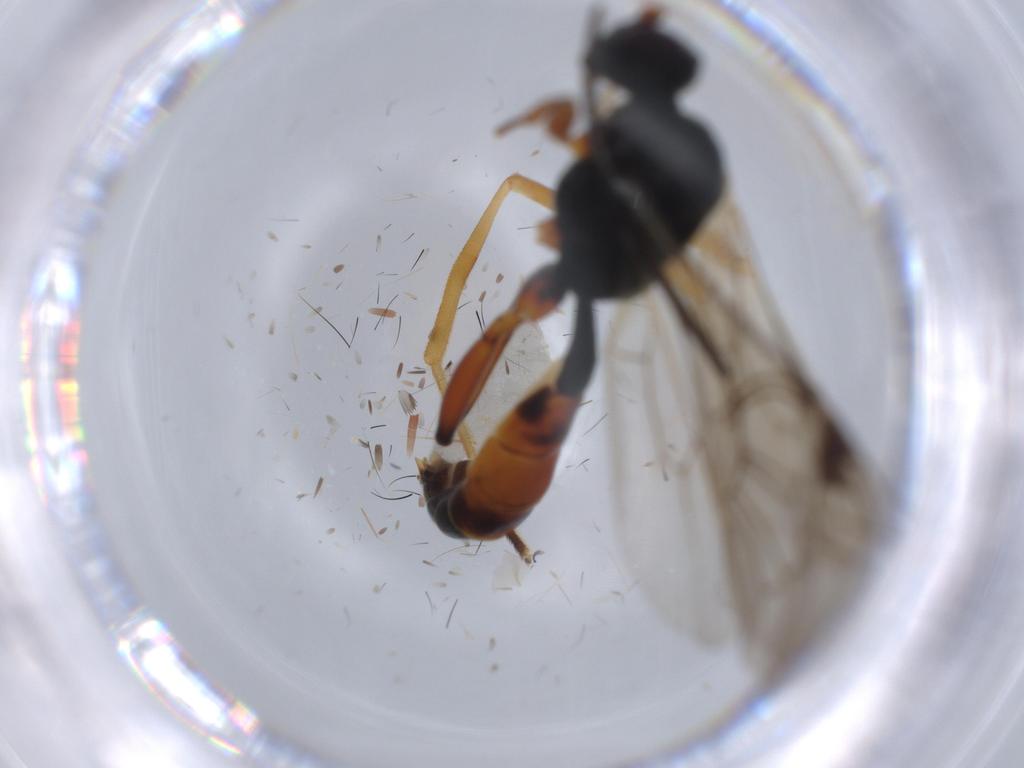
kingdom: Animalia
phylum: Arthropoda
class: Insecta
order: Hymenoptera
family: Ichneumonidae
